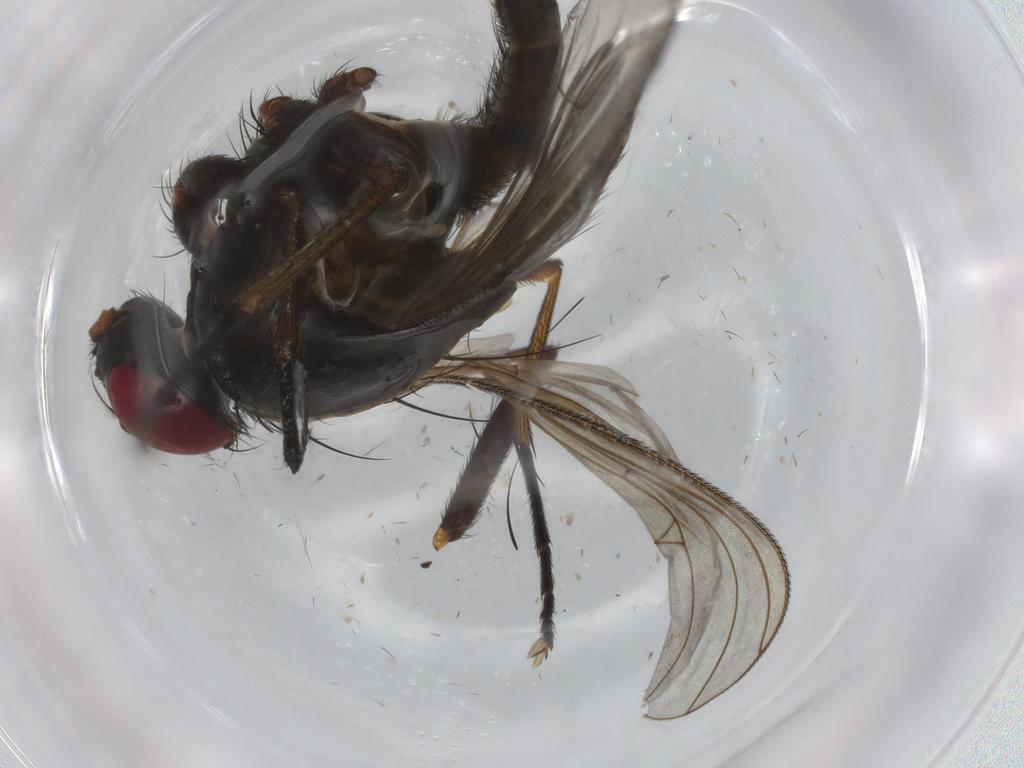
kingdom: Animalia
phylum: Arthropoda
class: Insecta
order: Diptera
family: Muscidae
